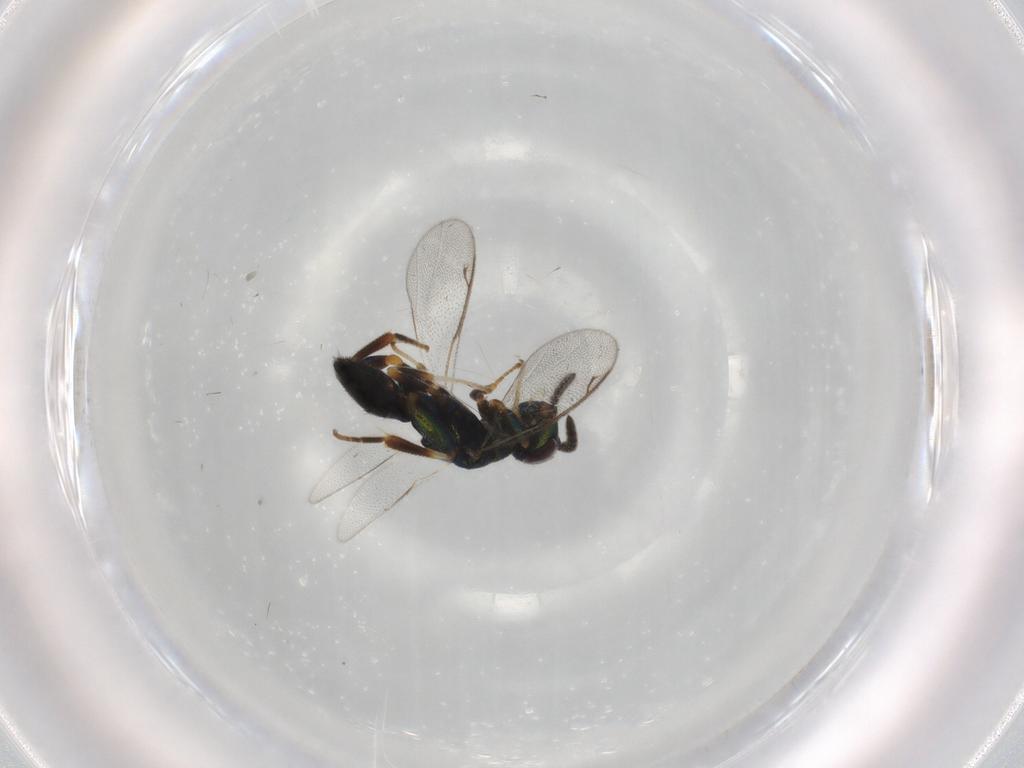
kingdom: Animalia
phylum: Arthropoda
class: Insecta
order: Hymenoptera
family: Cleonyminae
